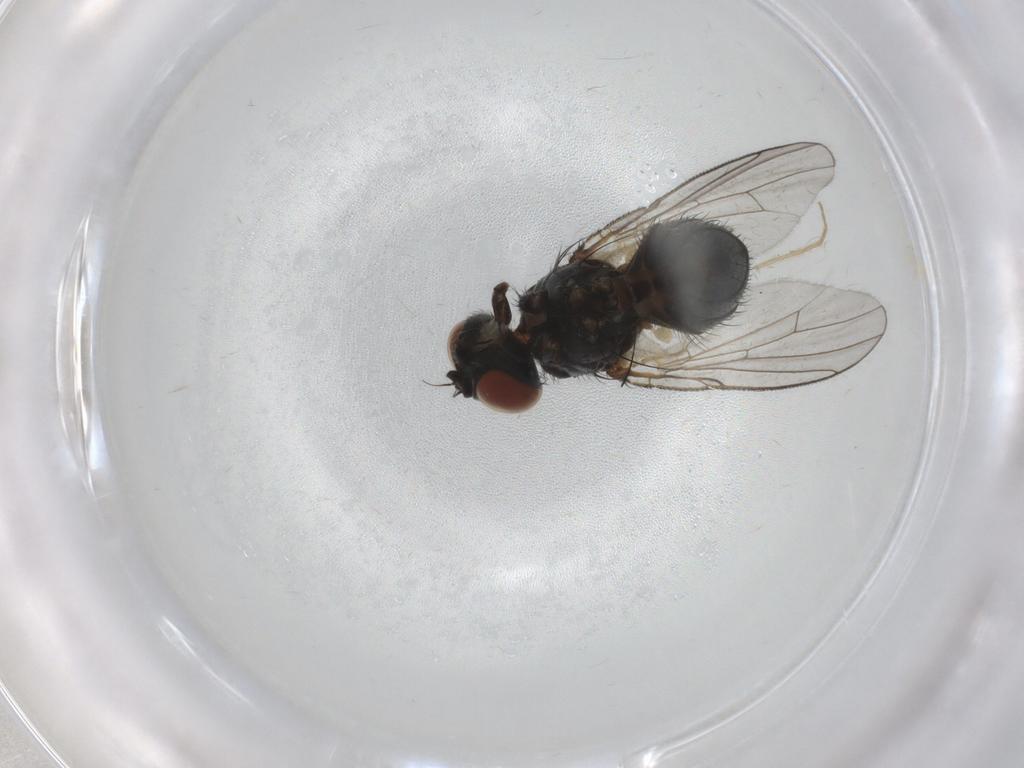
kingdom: Animalia
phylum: Arthropoda
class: Insecta
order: Diptera
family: Muscidae
